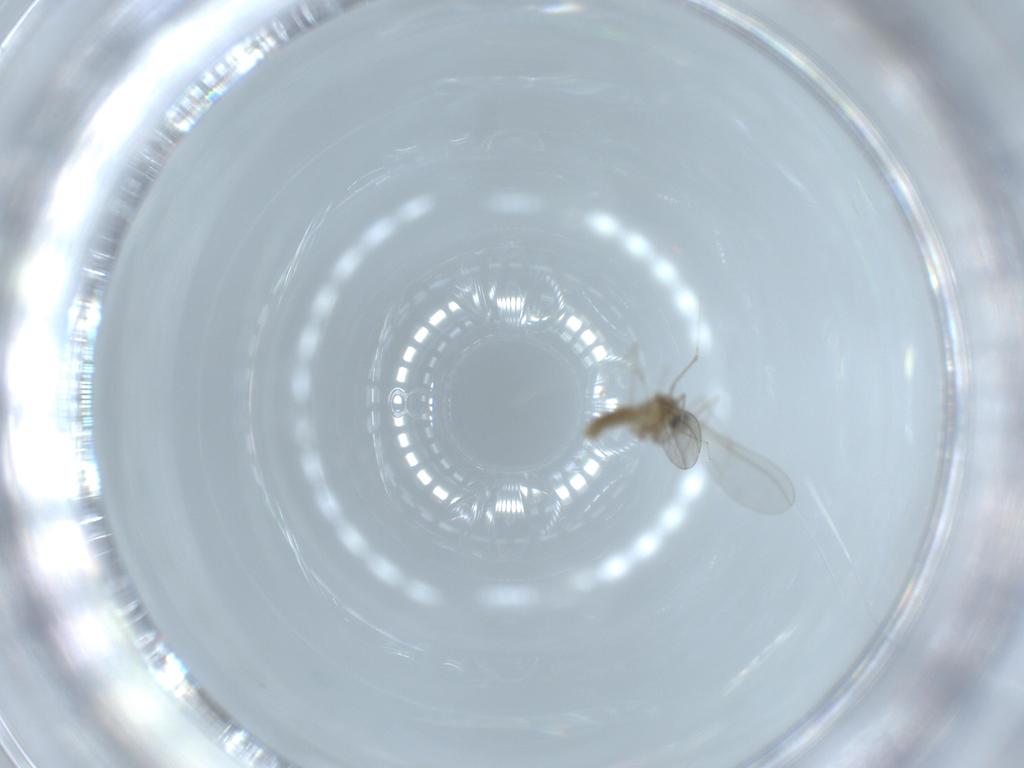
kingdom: Animalia
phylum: Arthropoda
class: Insecta
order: Diptera
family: Cecidomyiidae
